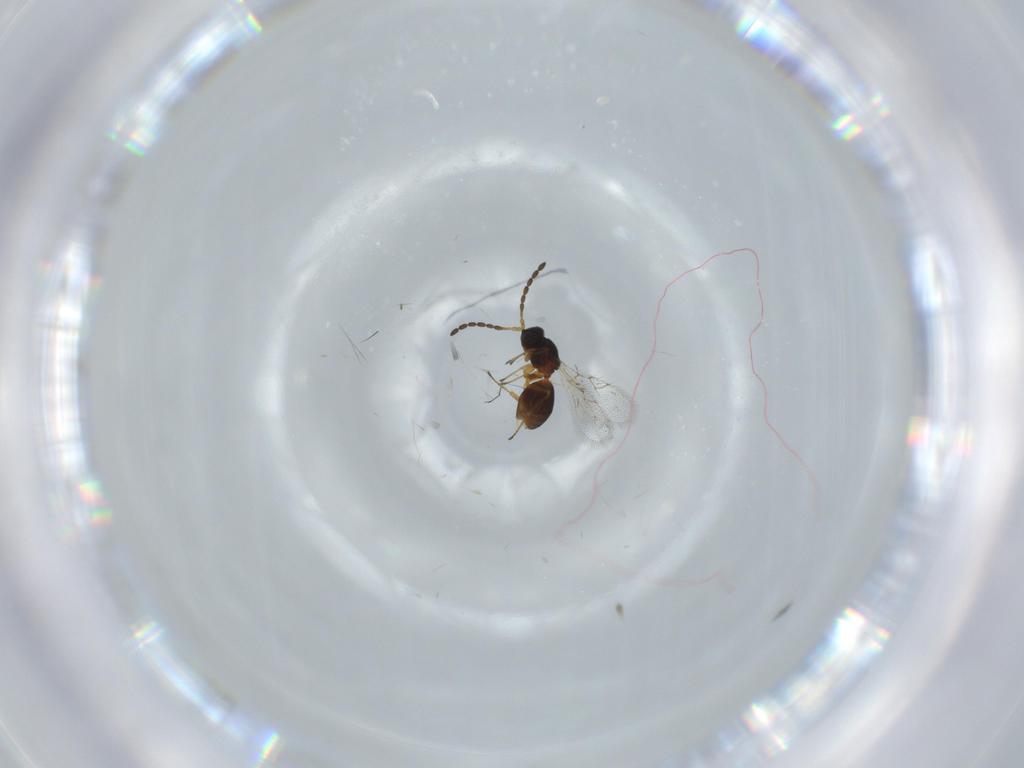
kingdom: Animalia
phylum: Arthropoda
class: Insecta
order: Hymenoptera
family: Figitidae
